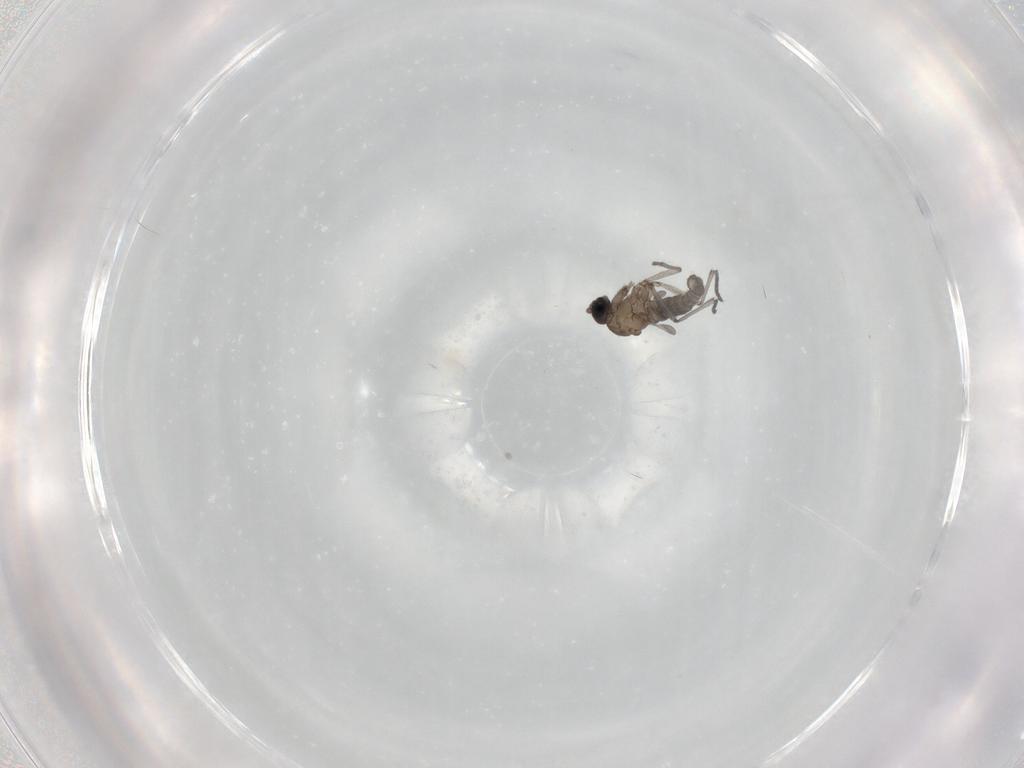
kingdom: Animalia
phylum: Arthropoda
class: Insecta
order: Diptera
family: Sciaridae
